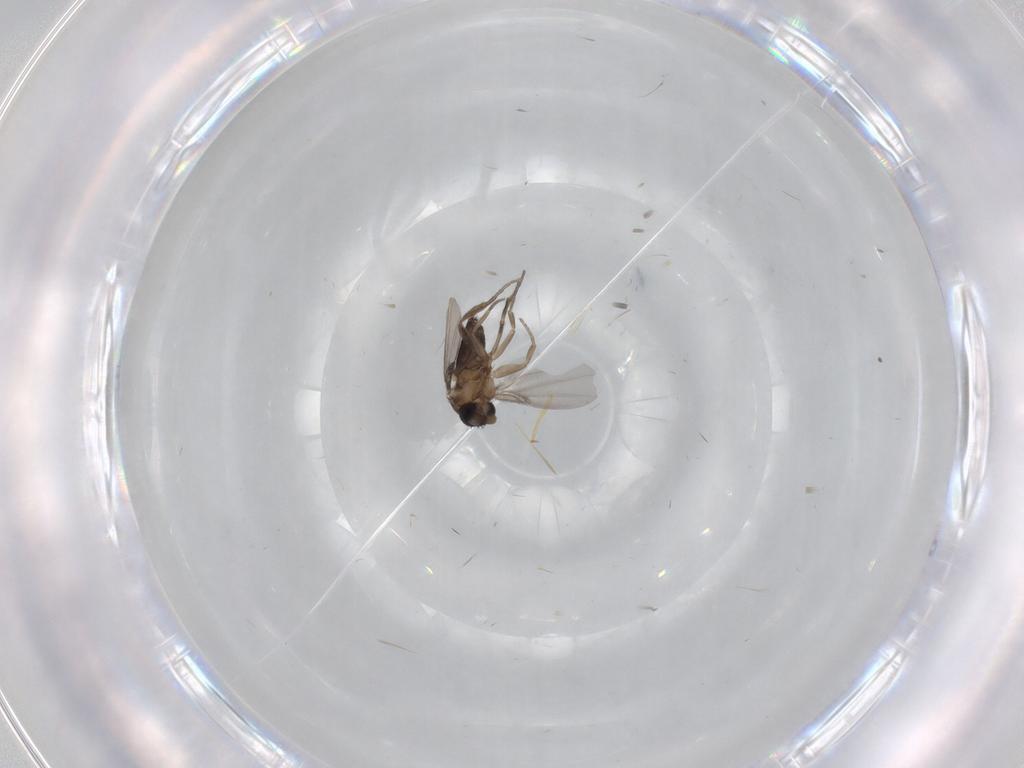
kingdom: Animalia
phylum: Arthropoda
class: Insecta
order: Diptera
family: Phoridae
